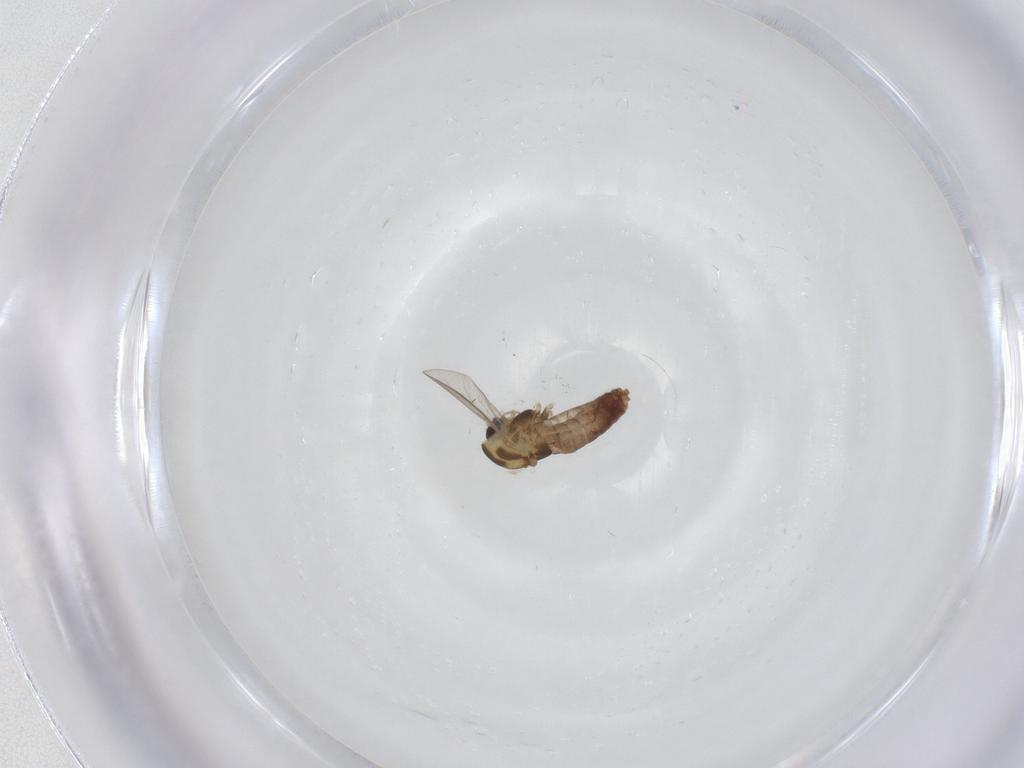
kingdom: Animalia
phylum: Arthropoda
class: Insecta
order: Diptera
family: Chironomidae
